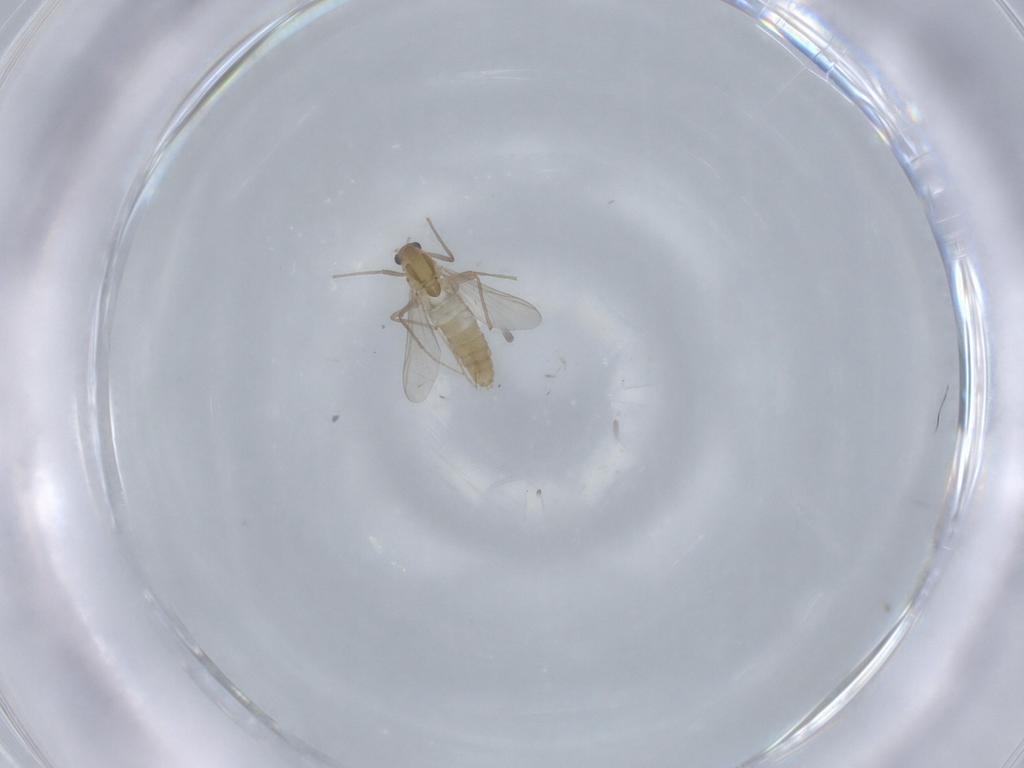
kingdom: Animalia
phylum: Arthropoda
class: Insecta
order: Diptera
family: Chironomidae
